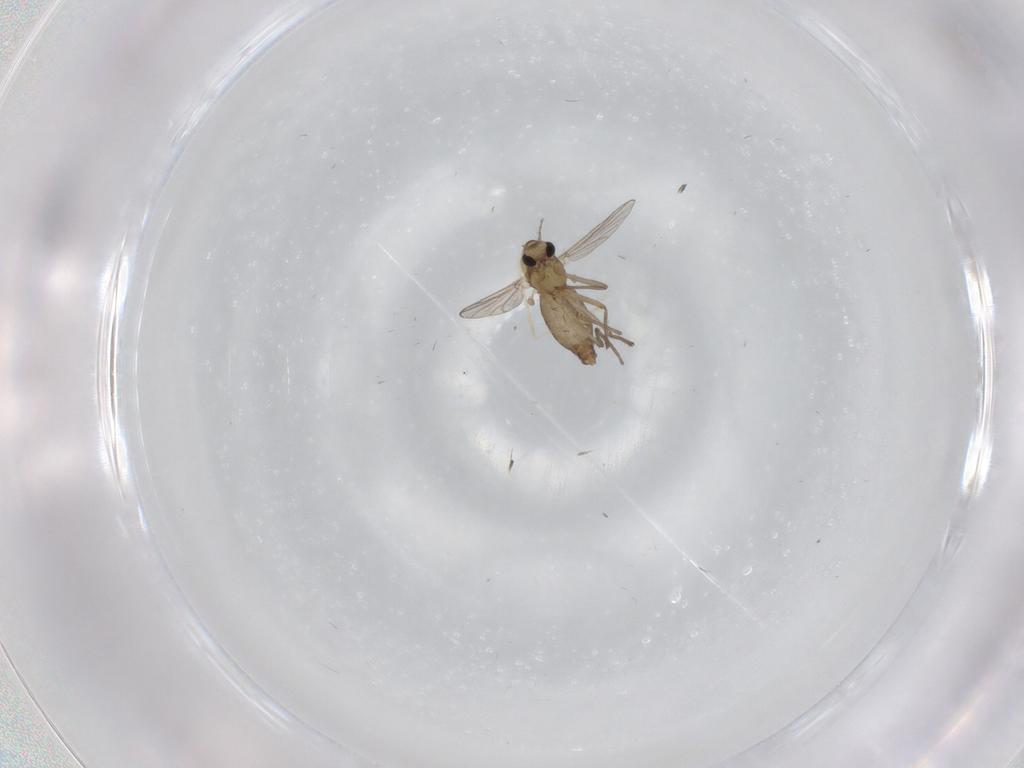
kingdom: Animalia
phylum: Arthropoda
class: Insecta
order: Diptera
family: Chironomidae
